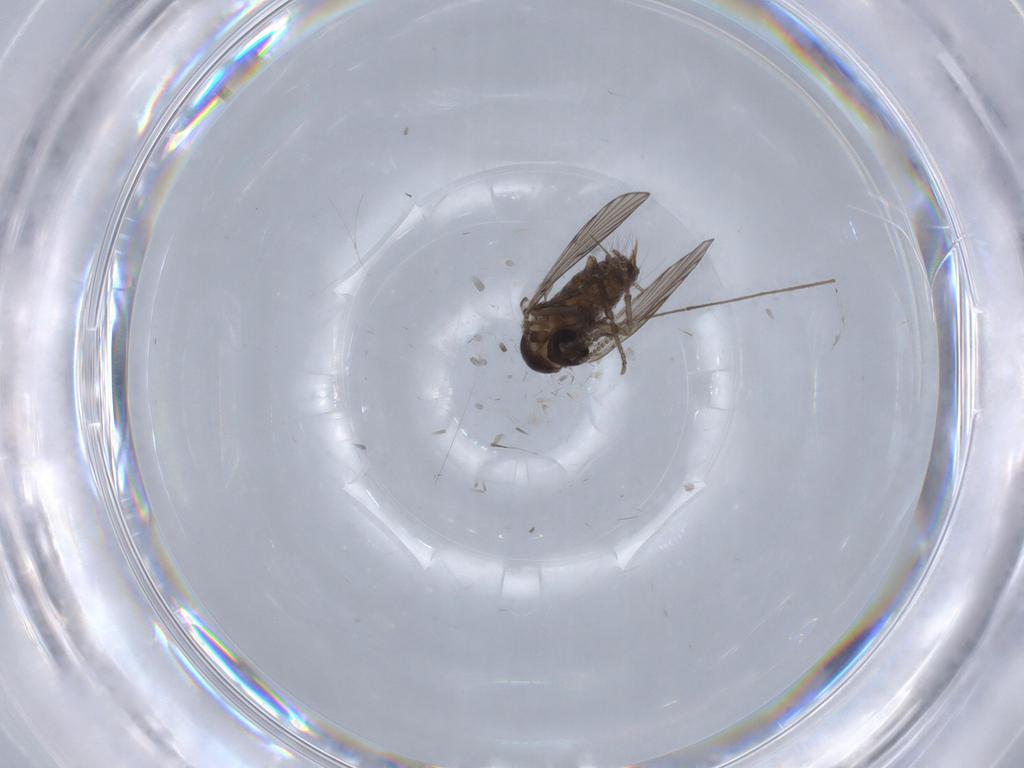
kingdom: Animalia
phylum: Arthropoda
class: Insecta
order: Diptera
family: Limoniidae
